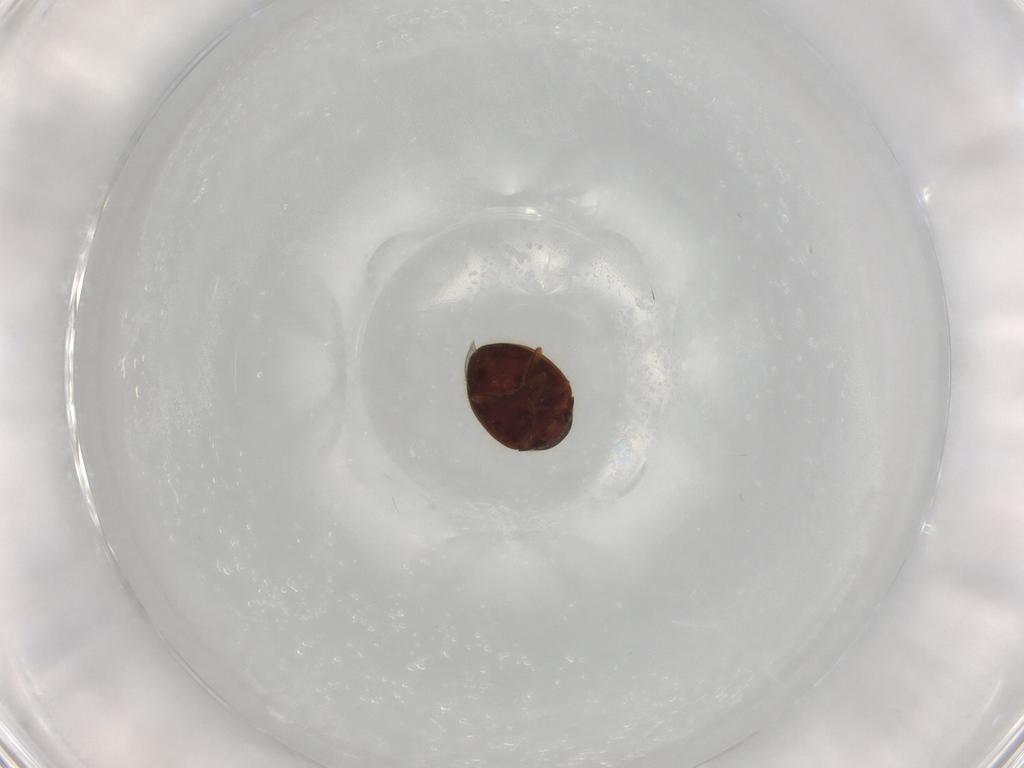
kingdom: Animalia
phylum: Arthropoda
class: Insecta
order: Coleoptera
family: Coccinellidae
